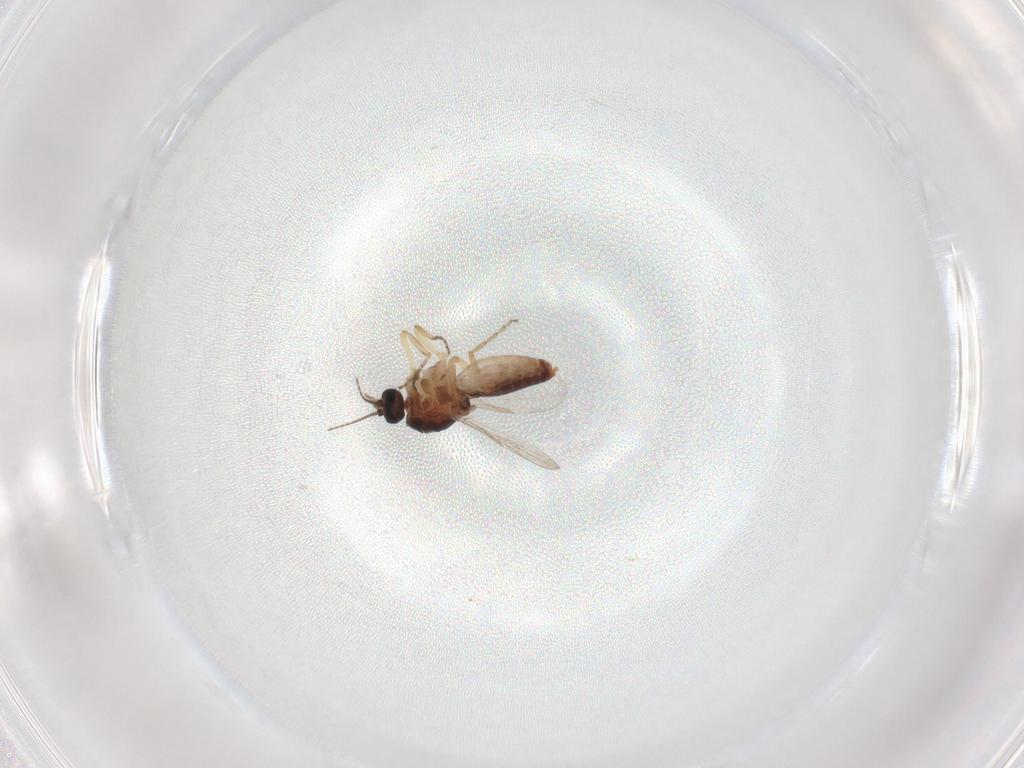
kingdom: Animalia
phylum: Arthropoda
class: Insecta
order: Diptera
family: Ceratopogonidae
